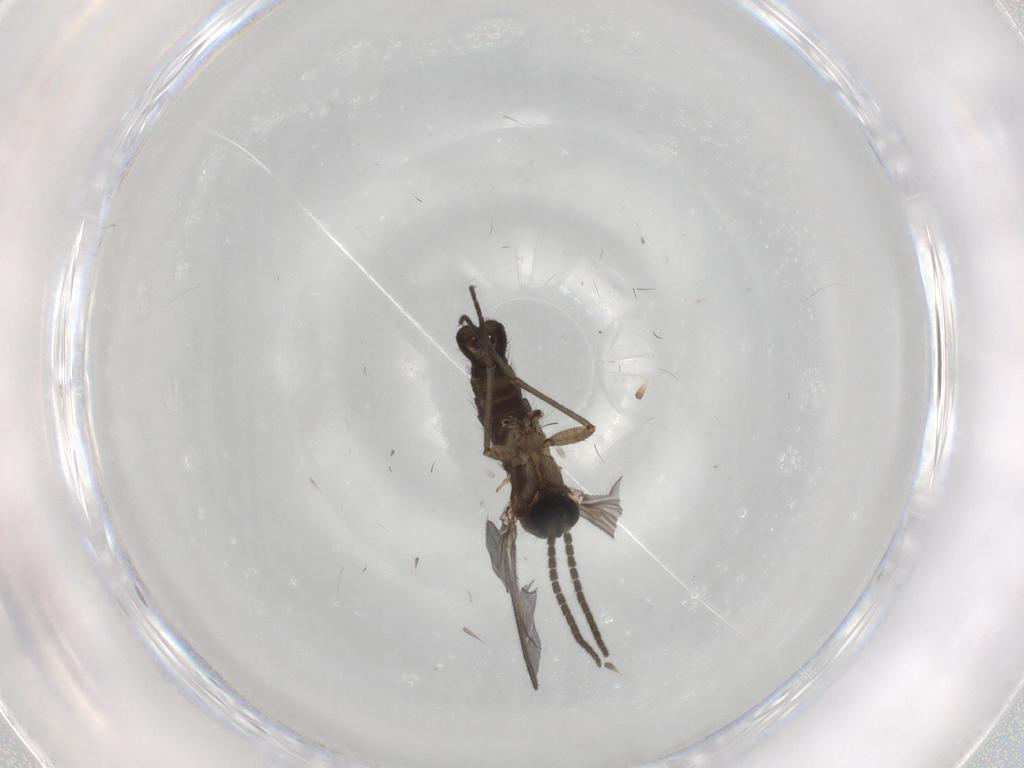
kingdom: Animalia
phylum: Arthropoda
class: Insecta
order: Diptera
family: Sciaridae
